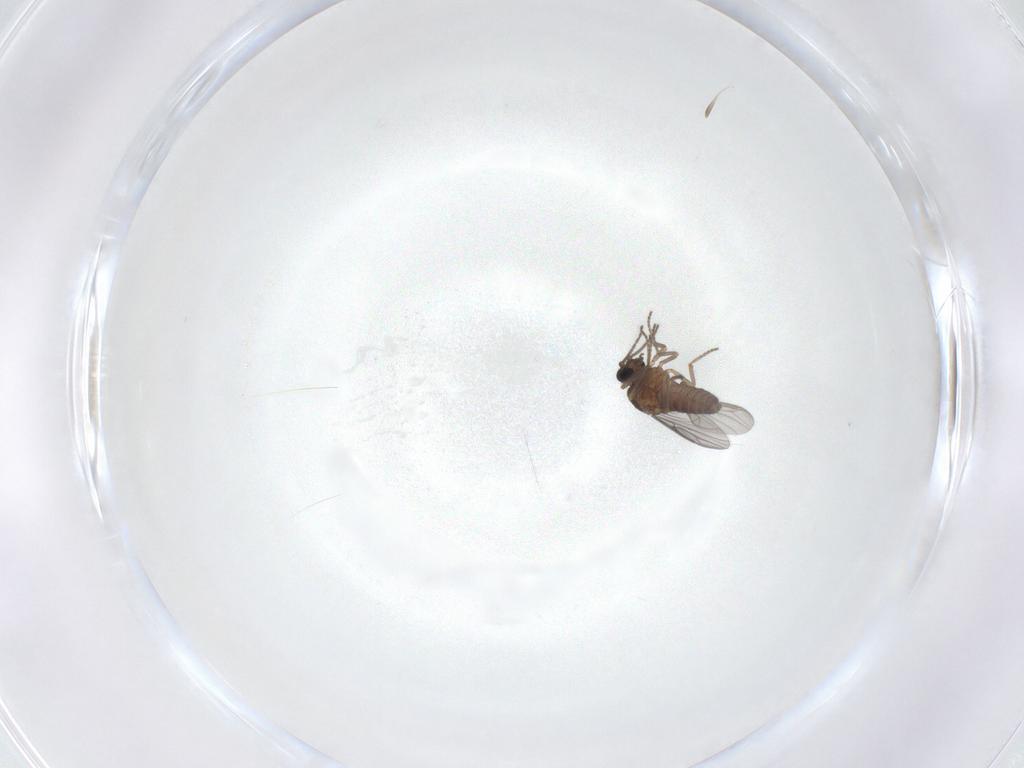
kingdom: Animalia
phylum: Arthropoda
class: Insecta
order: Diptera
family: Ceratopogonidae
